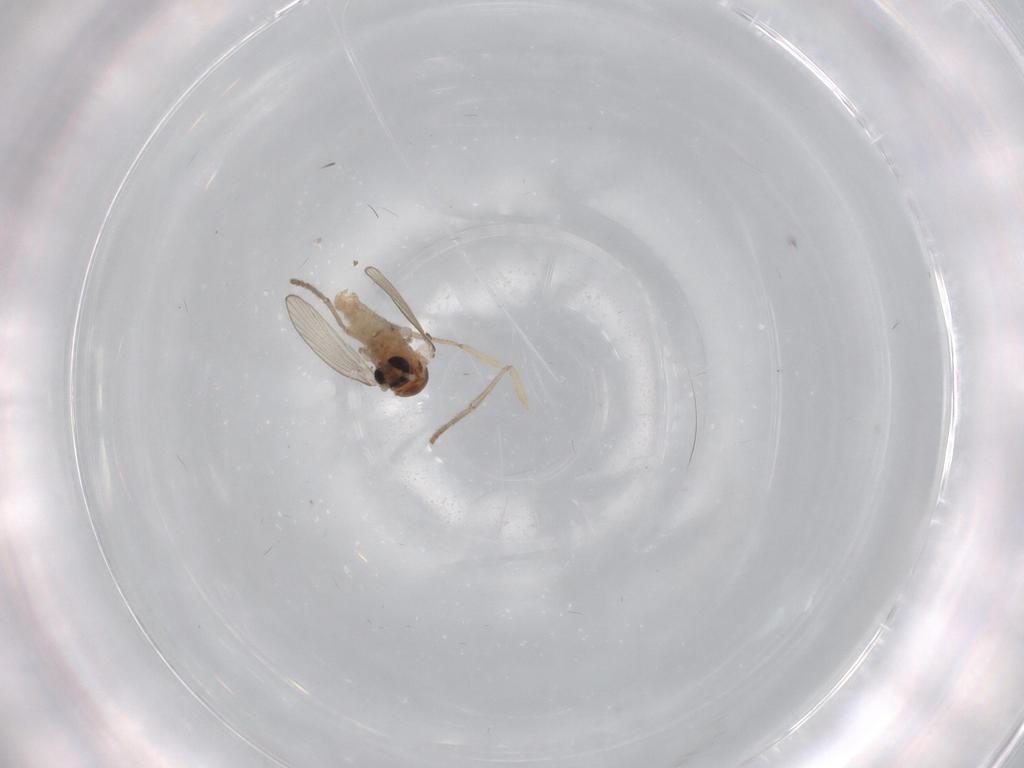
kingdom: Animalia
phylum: Arthropoda
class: Insecta
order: Diptera
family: Psychodidae
